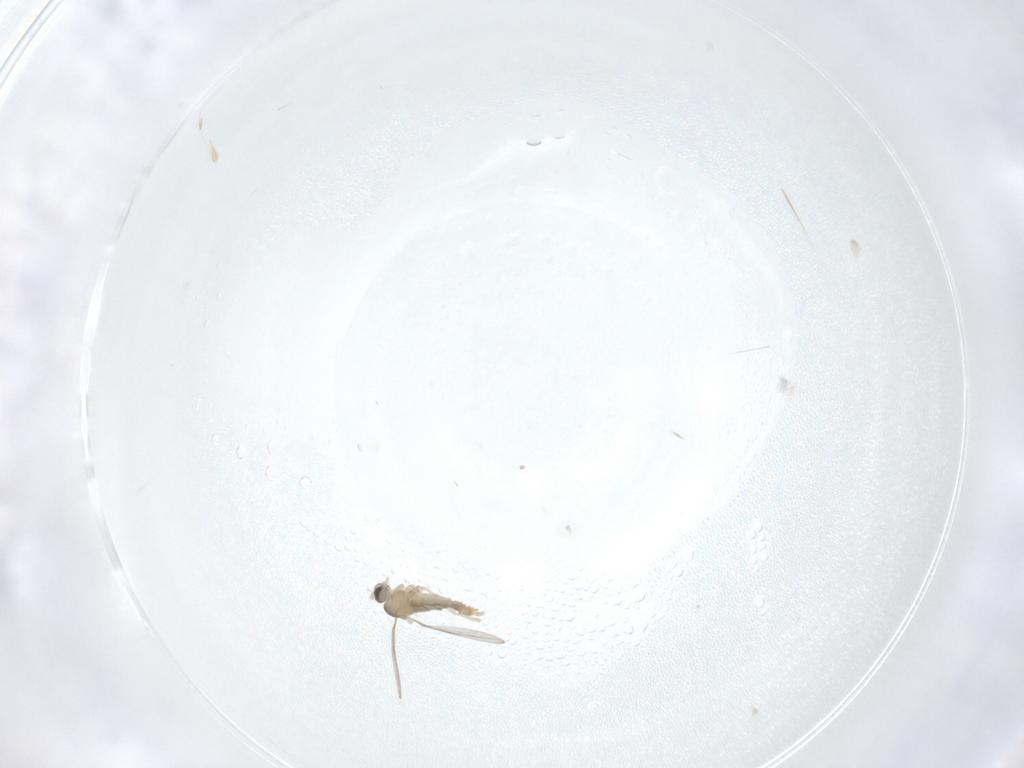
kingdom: Animalia
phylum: Arthropoda
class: Insecta
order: Diptera
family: Cecidomyiidae
